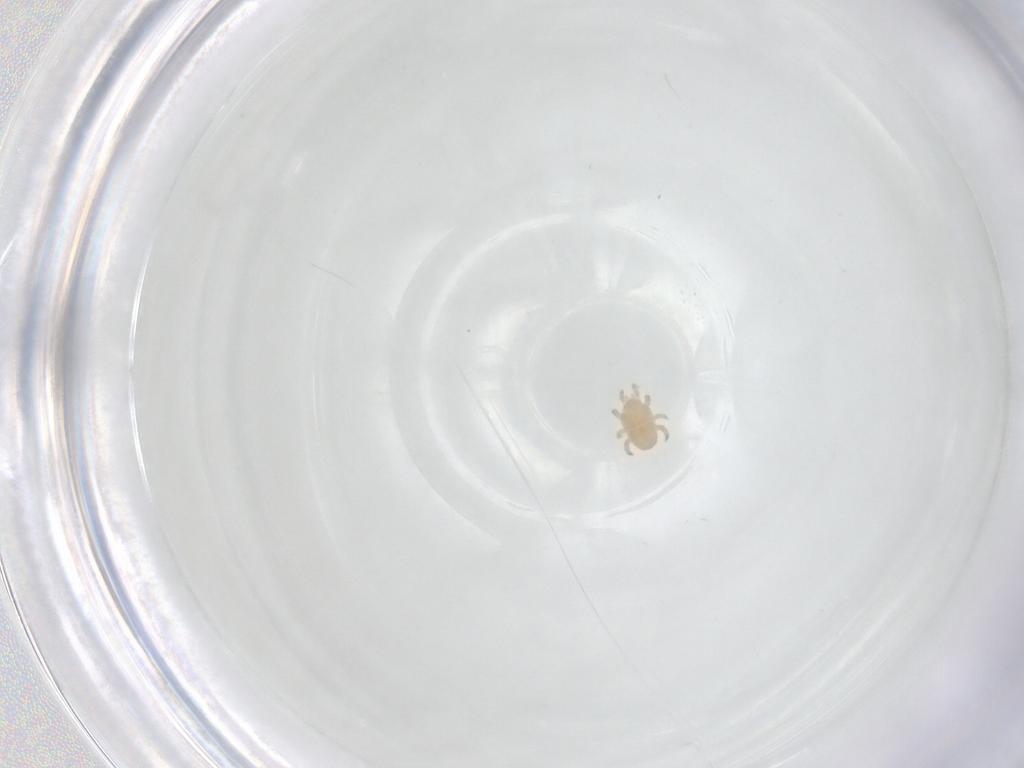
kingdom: Animalia
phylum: Arthropoda
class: Arachnida
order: Mesostigmata
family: Halolaelapidae
